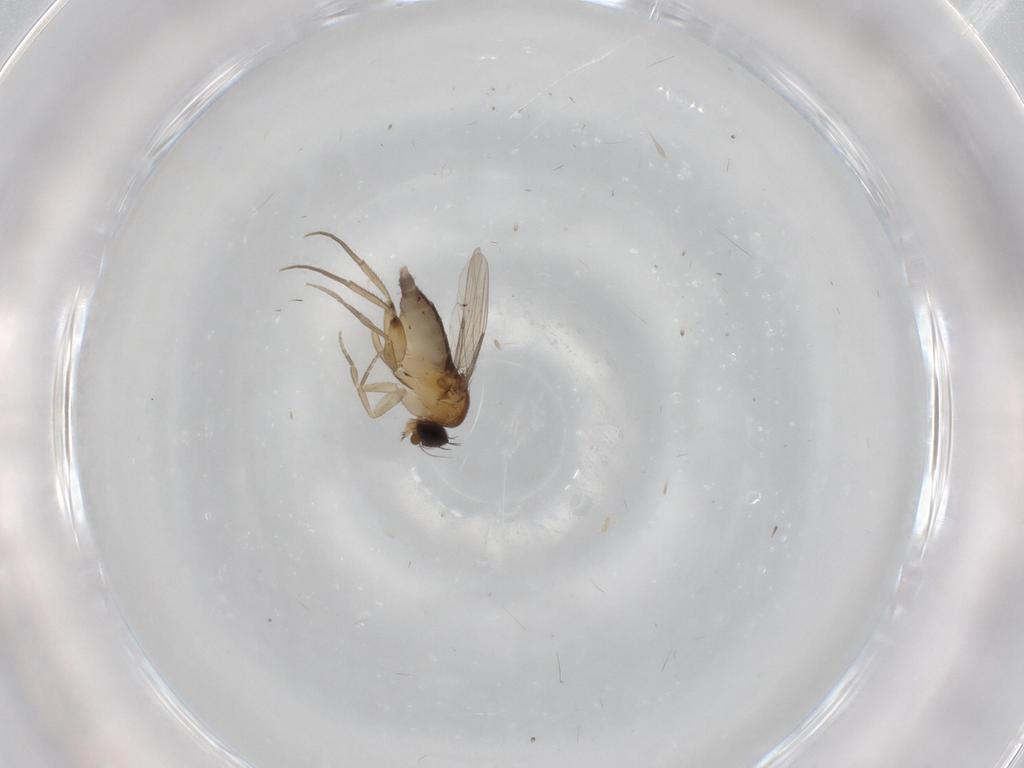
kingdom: Animalia
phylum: Arthropoda
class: Insecta
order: Diptera
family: Phoridae
